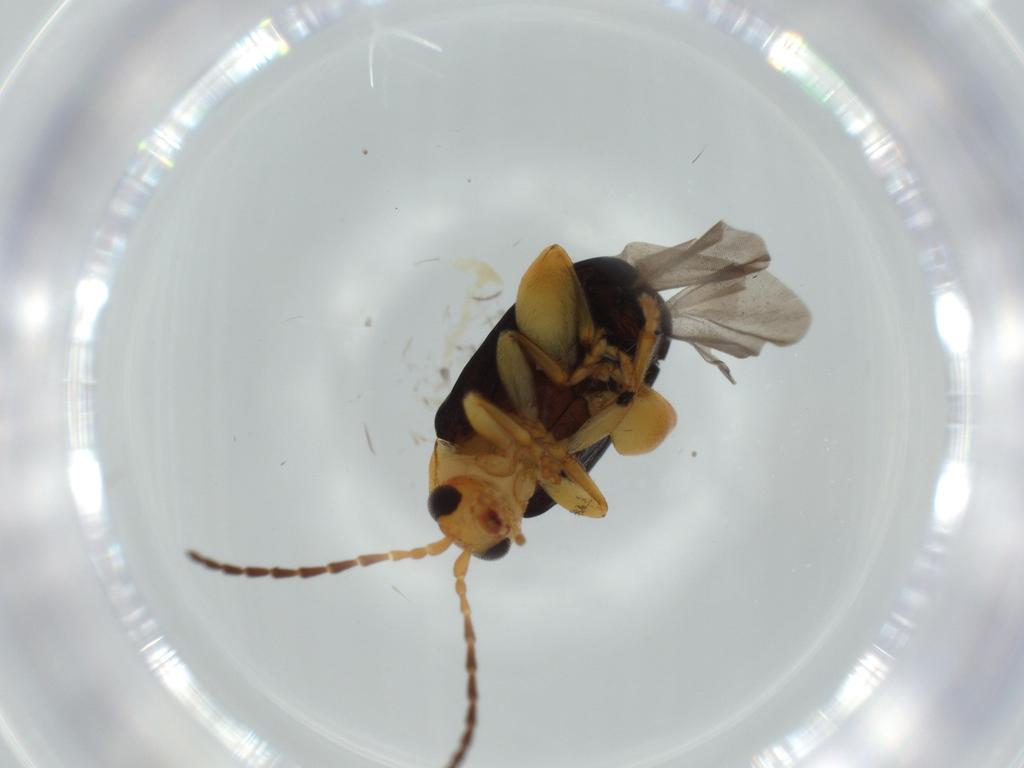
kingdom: Animalia
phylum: Arthropoda
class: Insecta
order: Coleoptera
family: Chrysomelidae
